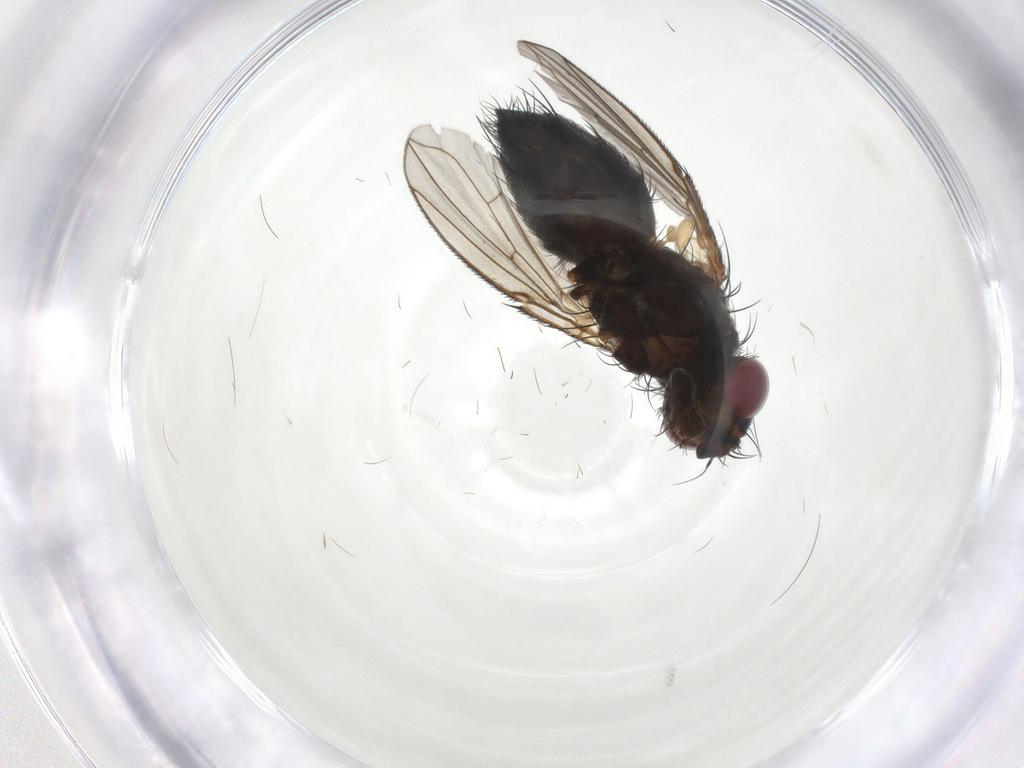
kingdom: Animalia
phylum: Arthropoda
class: Insecta
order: Diptera
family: Calliphoridae
